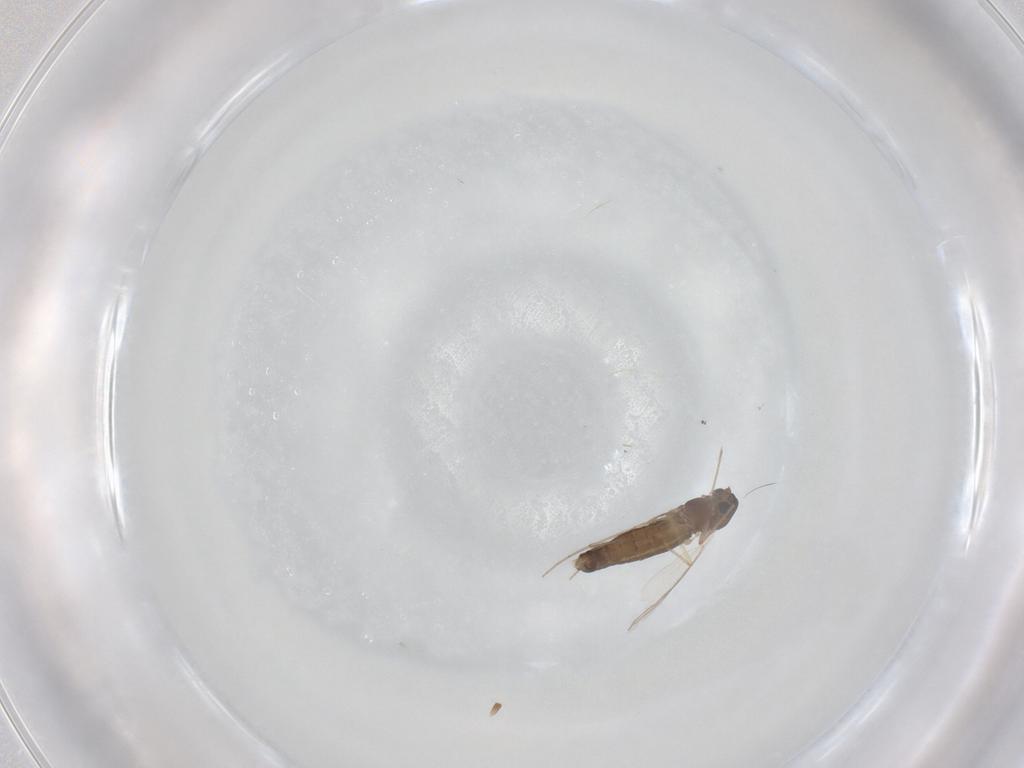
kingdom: Animalia
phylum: Arthropoda
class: Insecta
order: Diptera
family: Chironomidae
